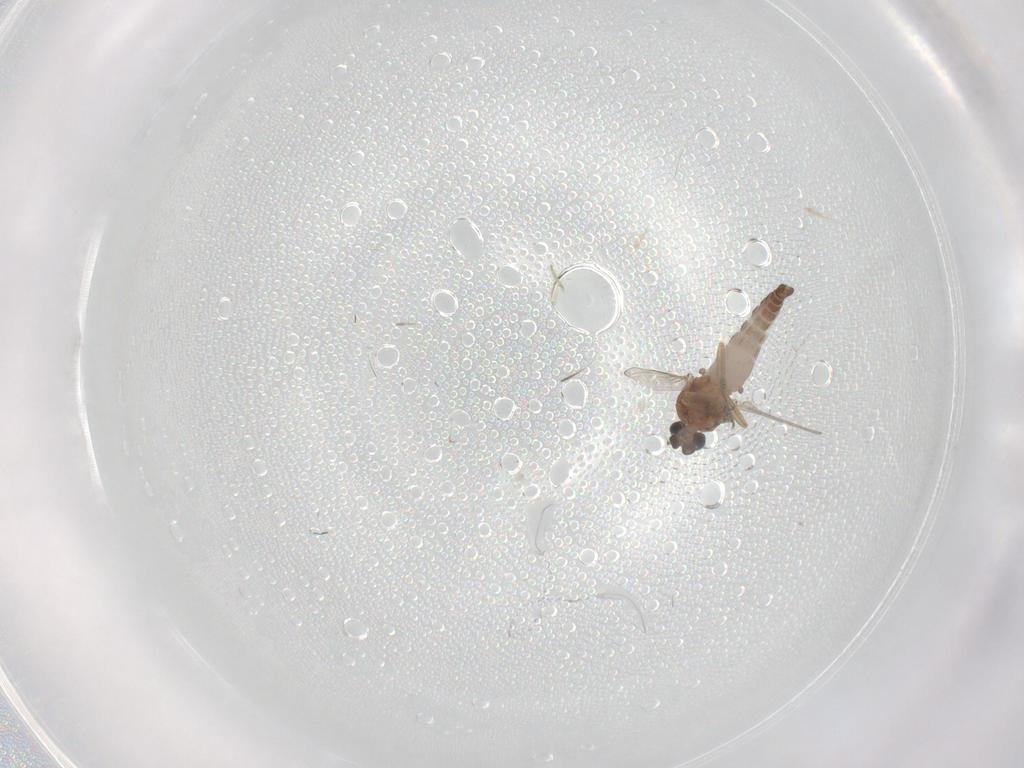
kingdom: Animalia
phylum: Arthropoda
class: Insecta
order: Diptera
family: Ceratopogonidae
